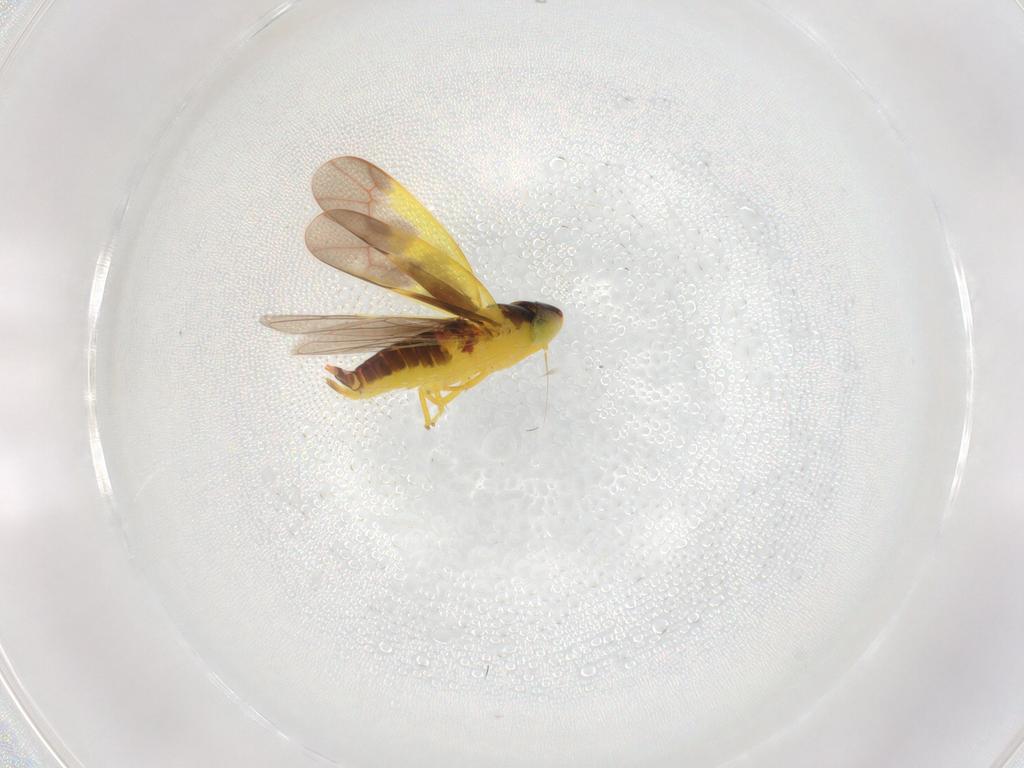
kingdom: Animalia
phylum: Arthropoda
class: Insecta
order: Hemiptera
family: Cicadellidae
